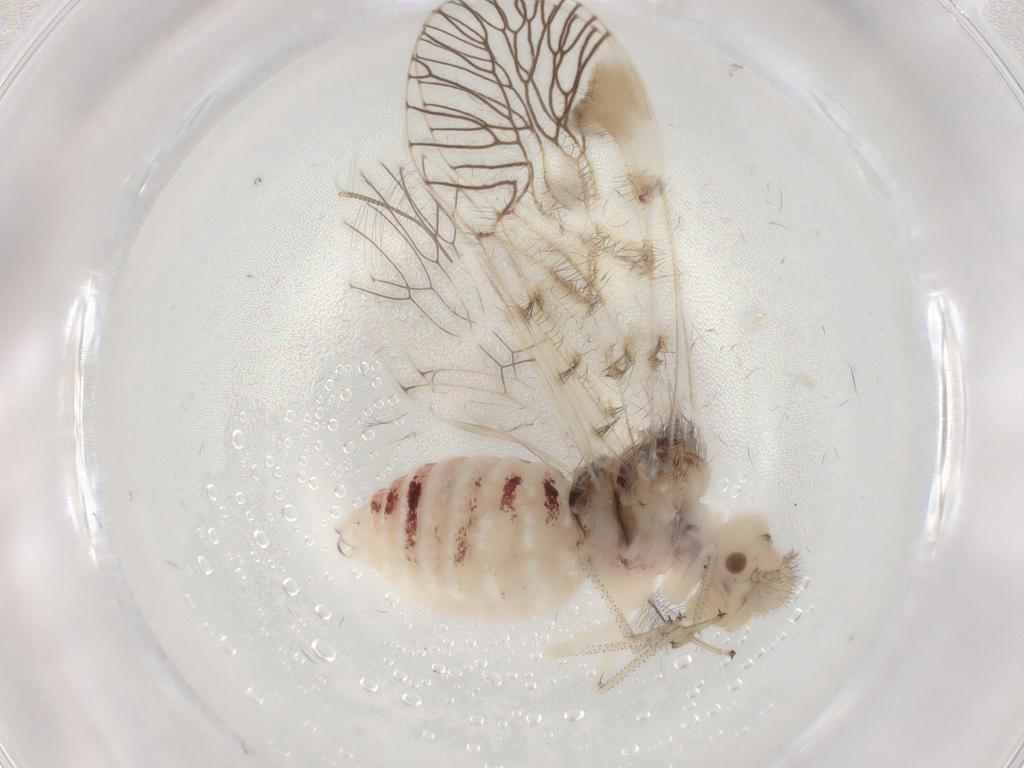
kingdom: Animalia
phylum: Arthropoda
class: Insecta
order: Psocodea
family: Amphipsocidae
